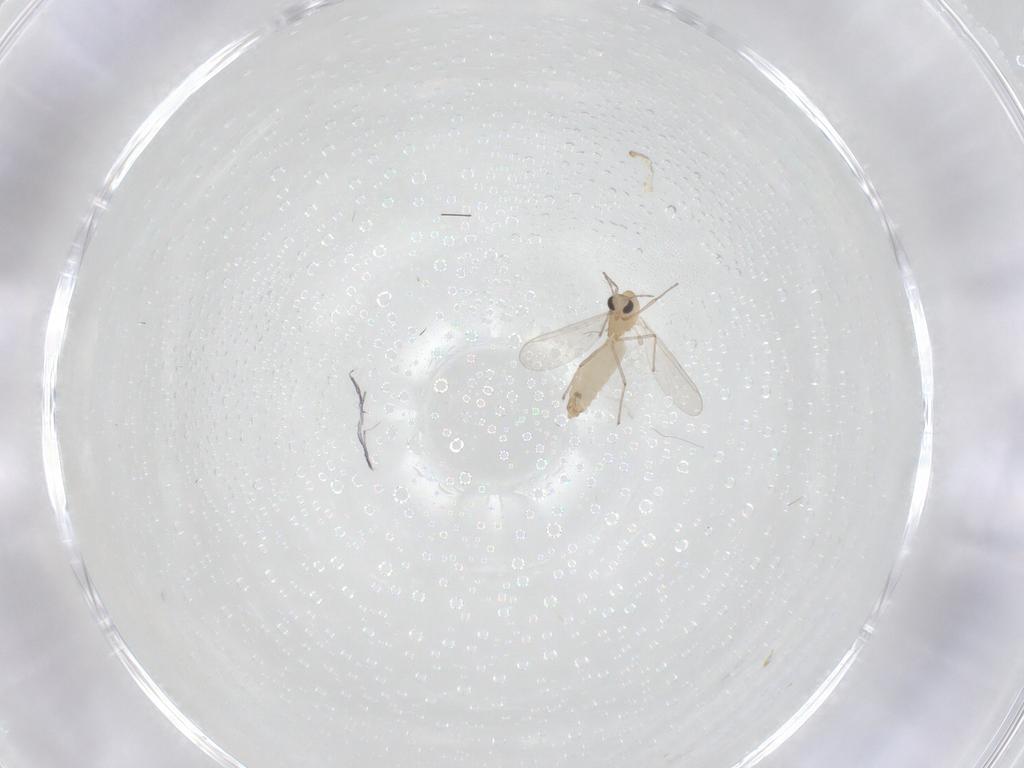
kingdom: Animalia
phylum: Arthropoda
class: Insecta
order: Diptera
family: Chironomidae
